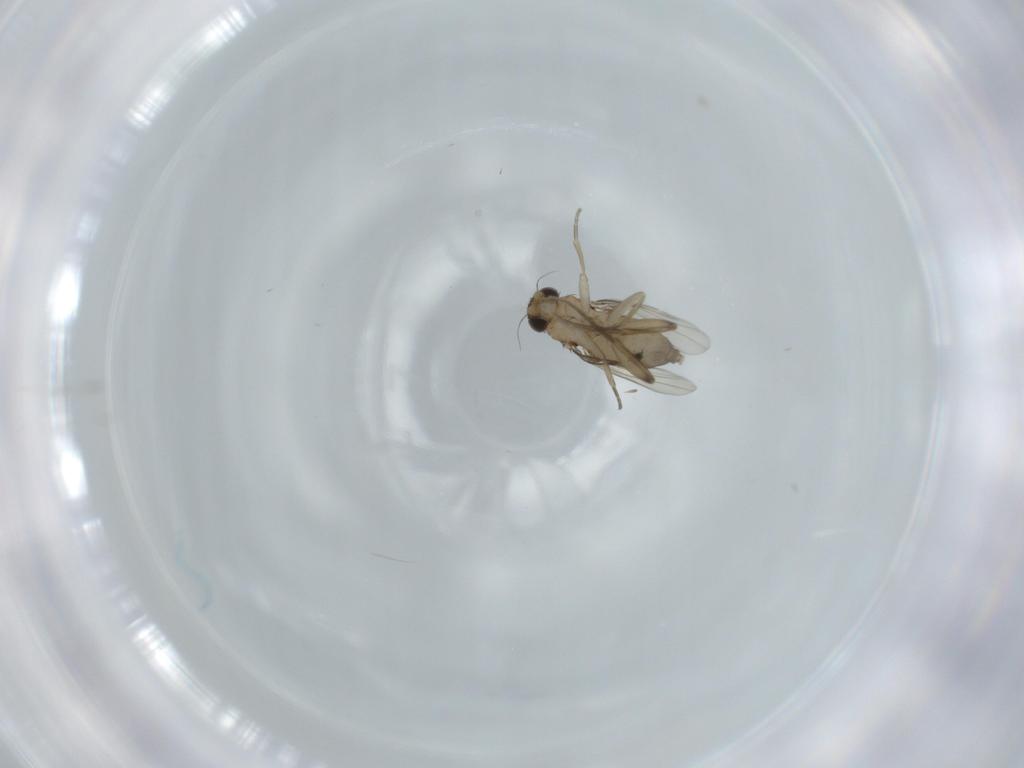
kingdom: Animalia
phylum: Arthropoda
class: Insecta
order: Diptera
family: Phoridae
